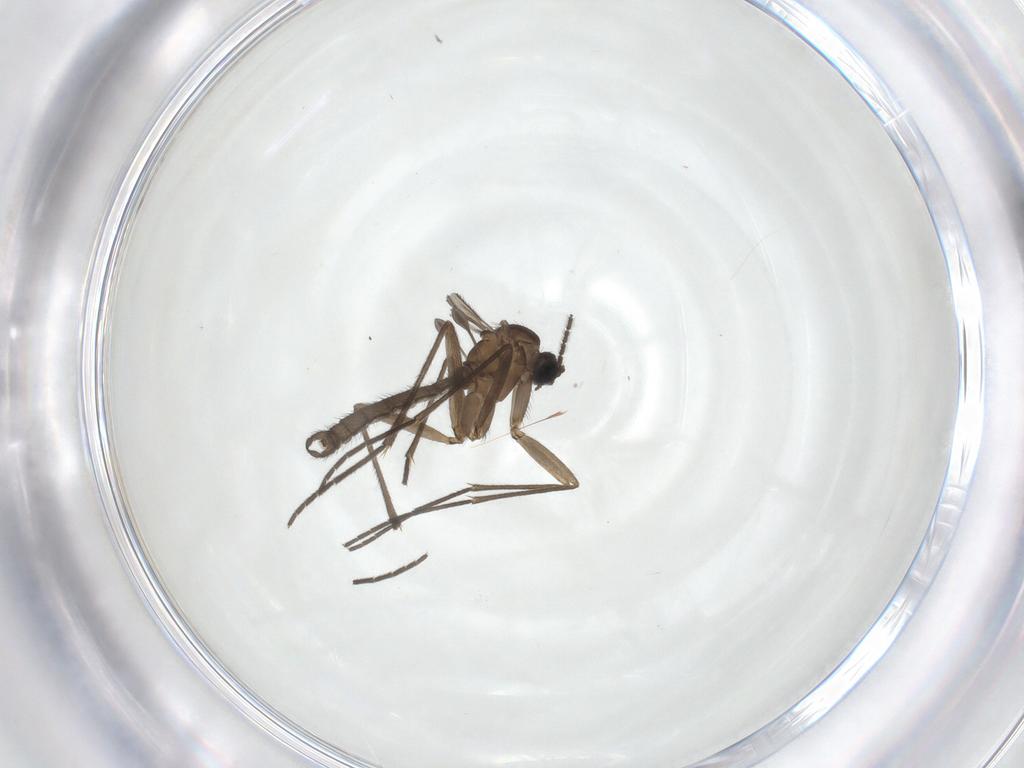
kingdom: Animalia
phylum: Arthropoda
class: Insecta
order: Diptera
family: Sciaridae
